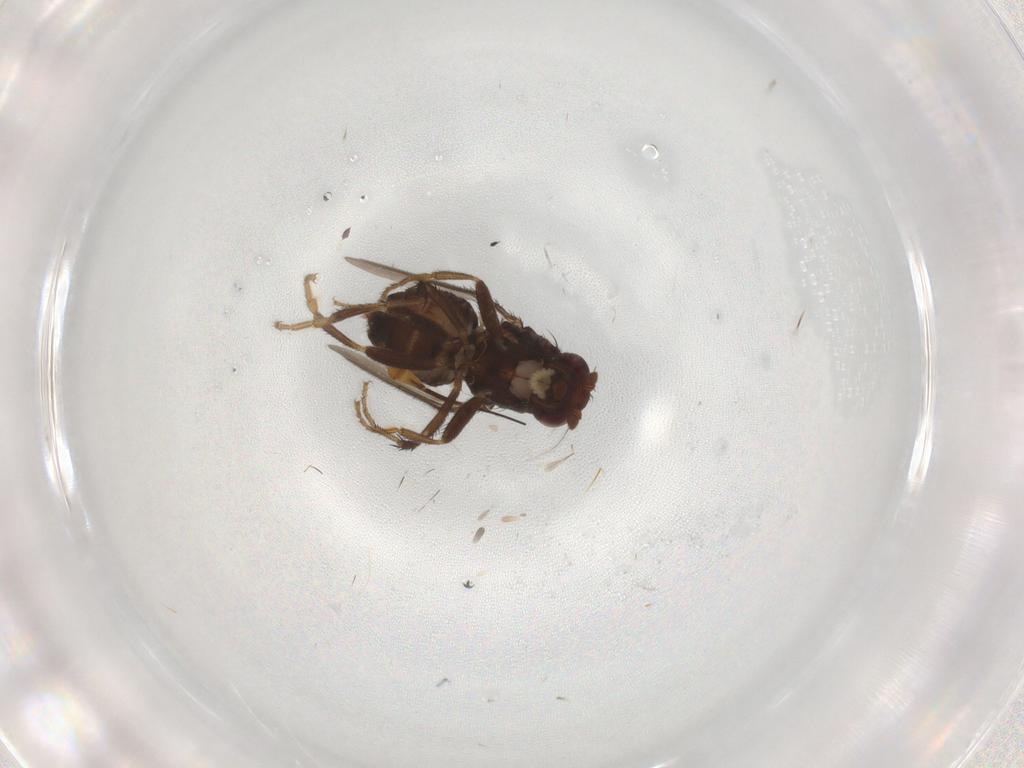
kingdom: Animalia
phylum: Arthropoda
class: Insecta
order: Diptera
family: Sphaeroceridae
